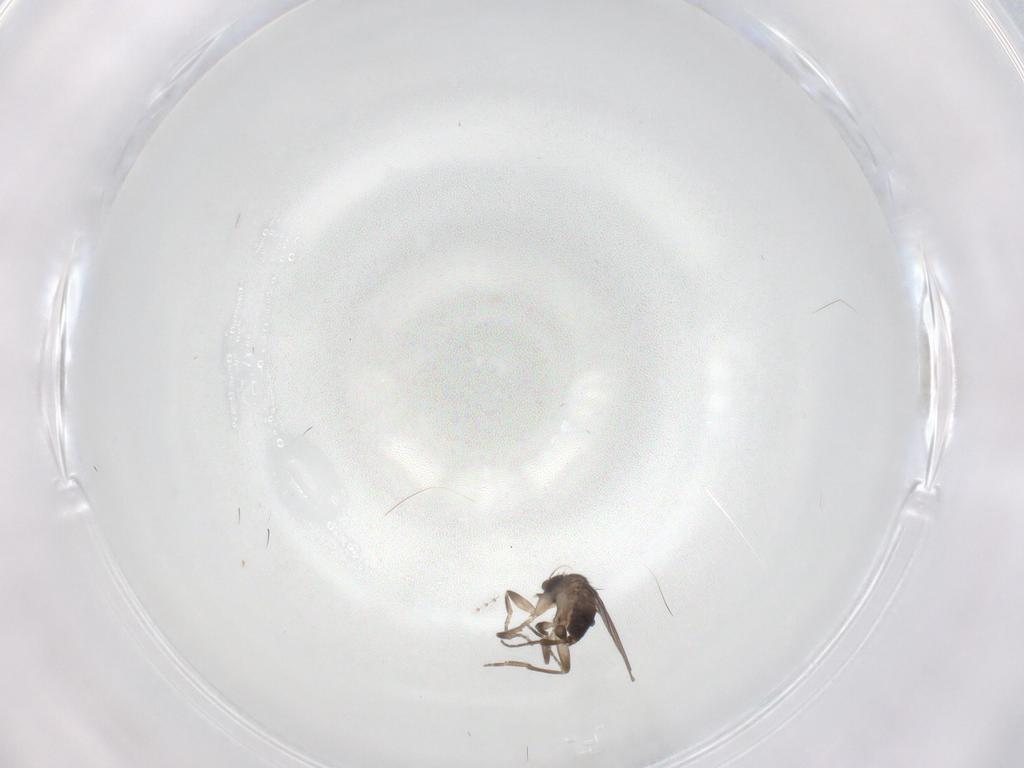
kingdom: Animalia
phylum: Arthropoda
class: Insecta
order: Diptera
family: Cecidomyiidae
